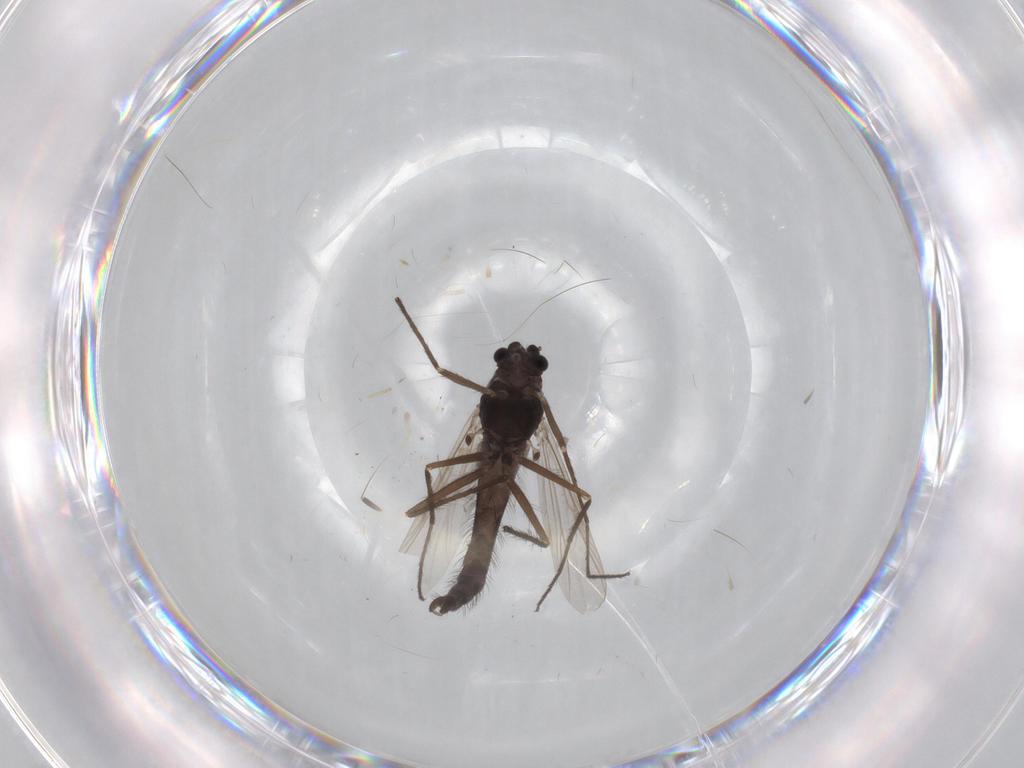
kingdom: Animalia
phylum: Arthropoda
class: Insecta
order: Diptera
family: Chironomidae
